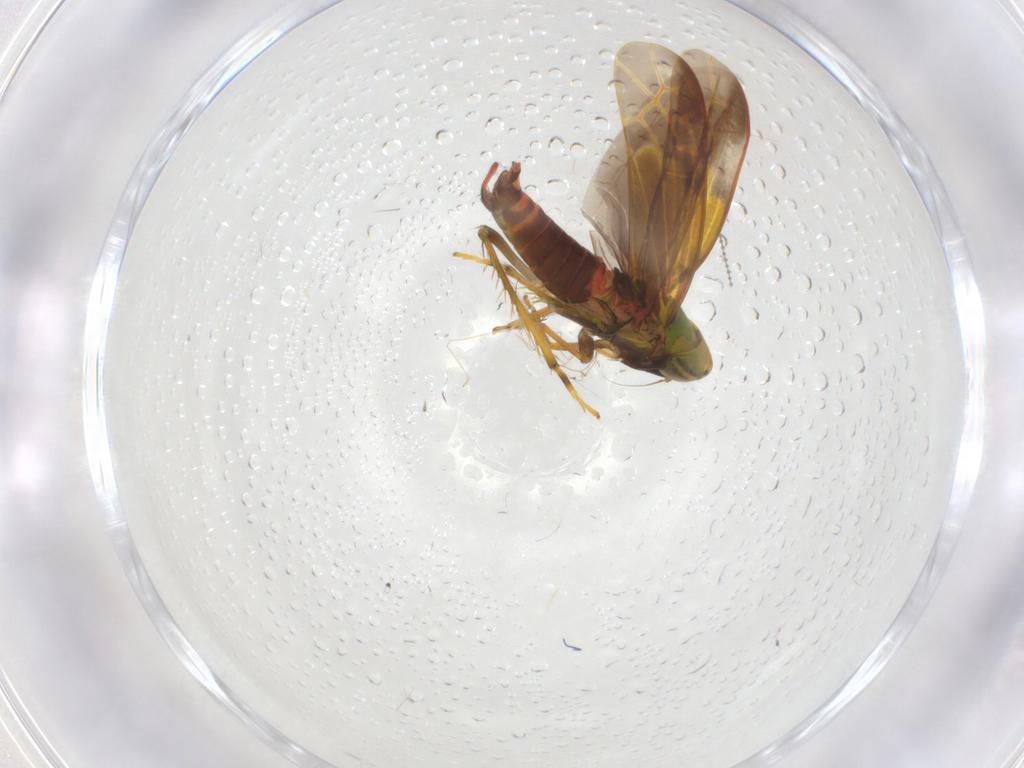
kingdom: Animalia
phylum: Arthropoda
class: Insecta
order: Hemiptera
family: Cicadellidae
